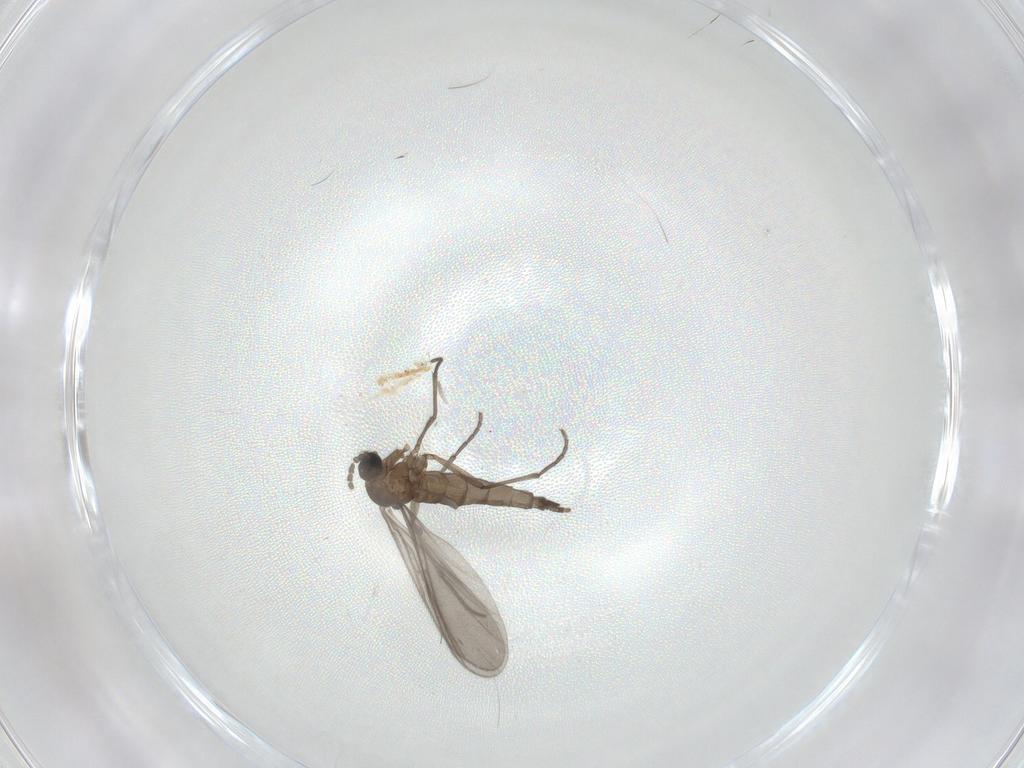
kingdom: Animalia
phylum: Arthropoda
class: Insecta
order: Diptera
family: Sciaridae
